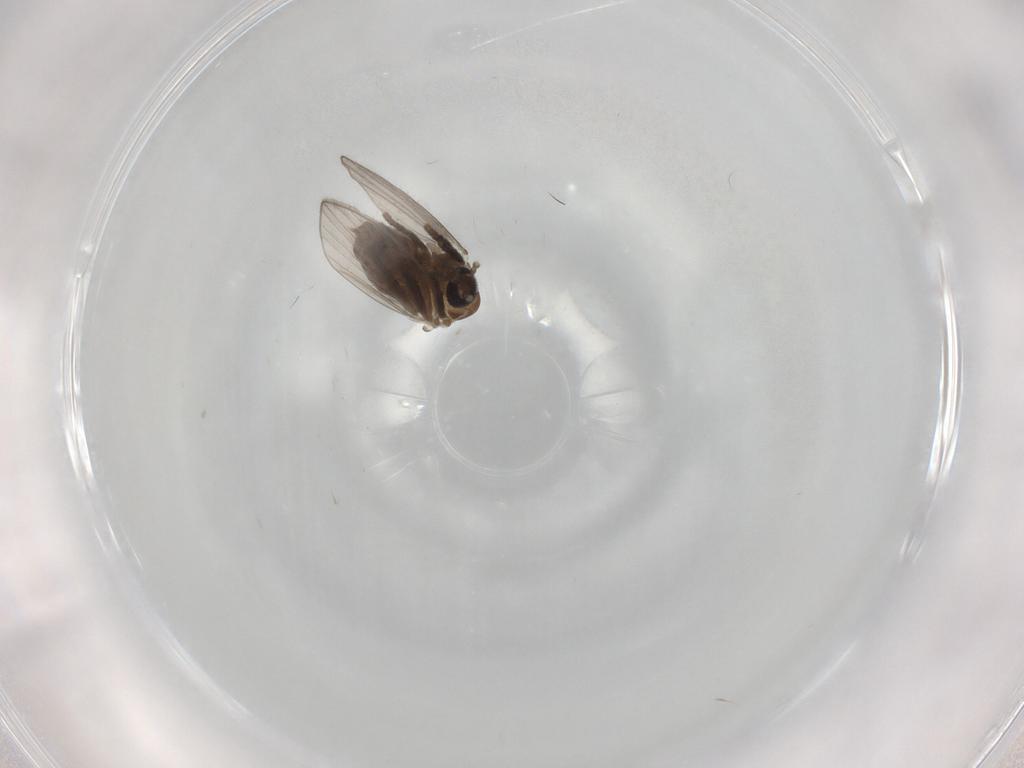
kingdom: Animalia
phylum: Arthropoda
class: Insecta
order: Diptera
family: Psychodidae
